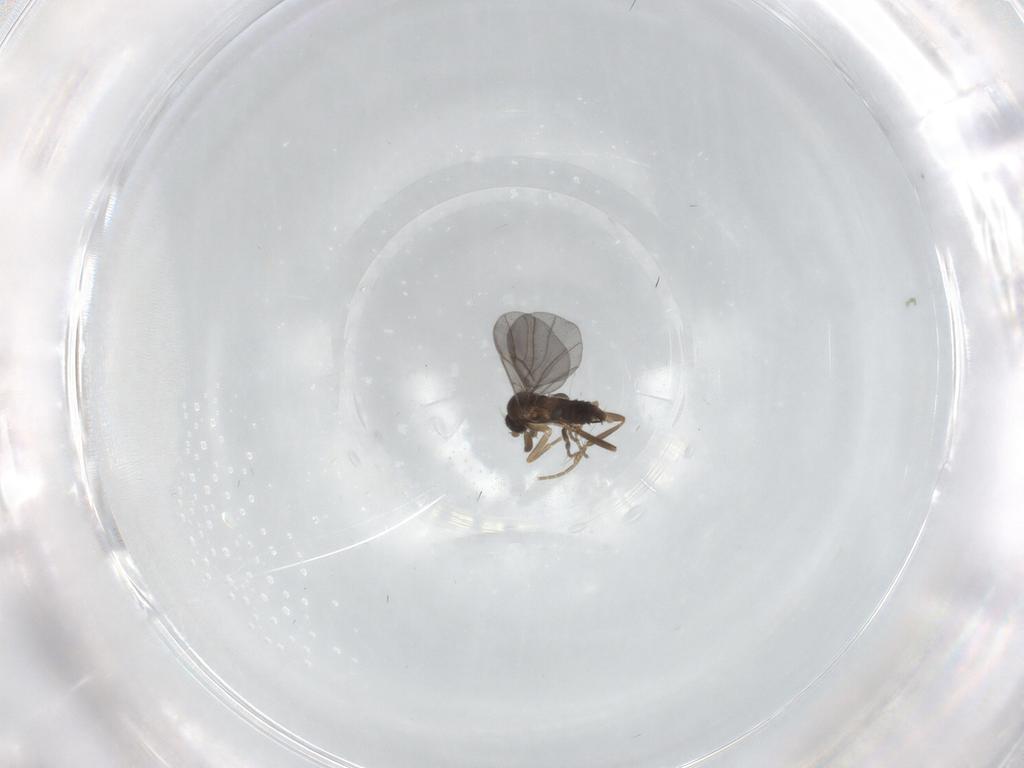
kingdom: Animalia
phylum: Arthropoda
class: Insecta
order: Diptera
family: Phoridae
